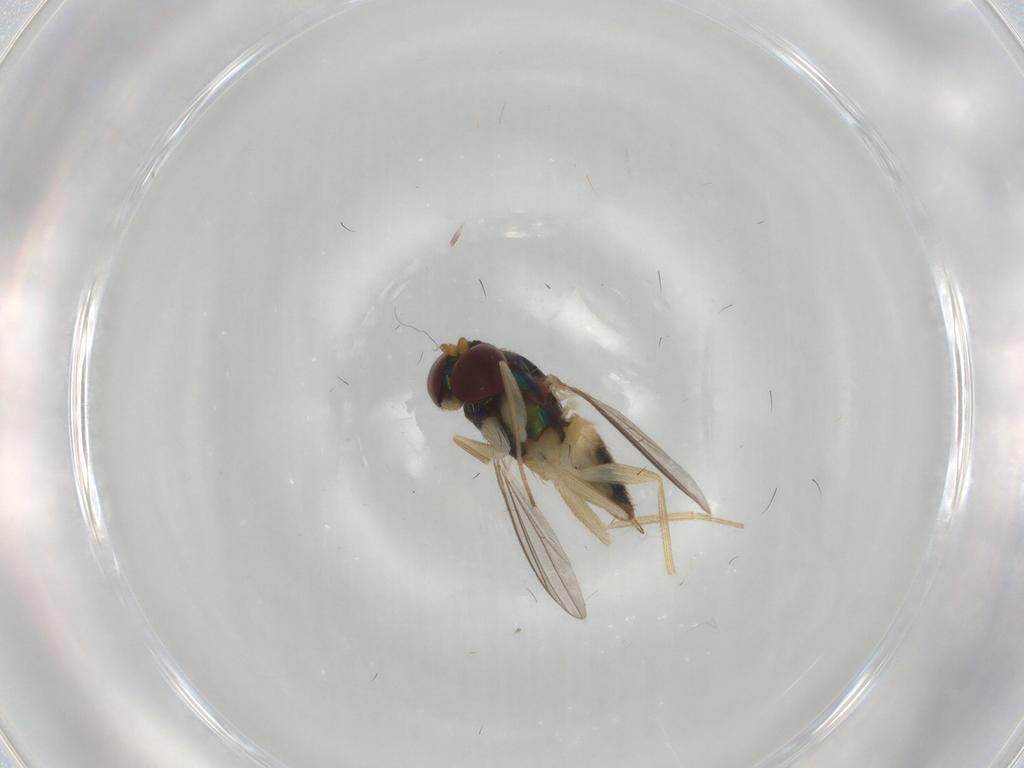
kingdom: Animalia
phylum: Arthropoda
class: Insecta
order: Diptera
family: Dolichopodidae
